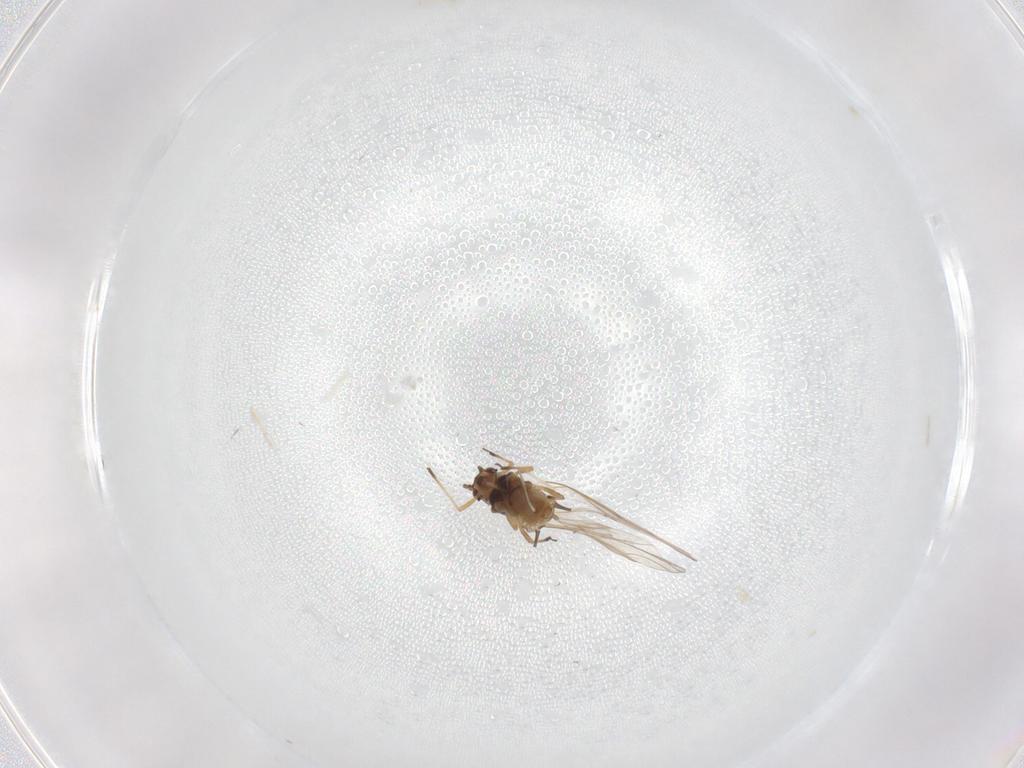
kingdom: Animalia
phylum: Arthropoda
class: Insecta
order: Hemiptera
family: Aphididae
